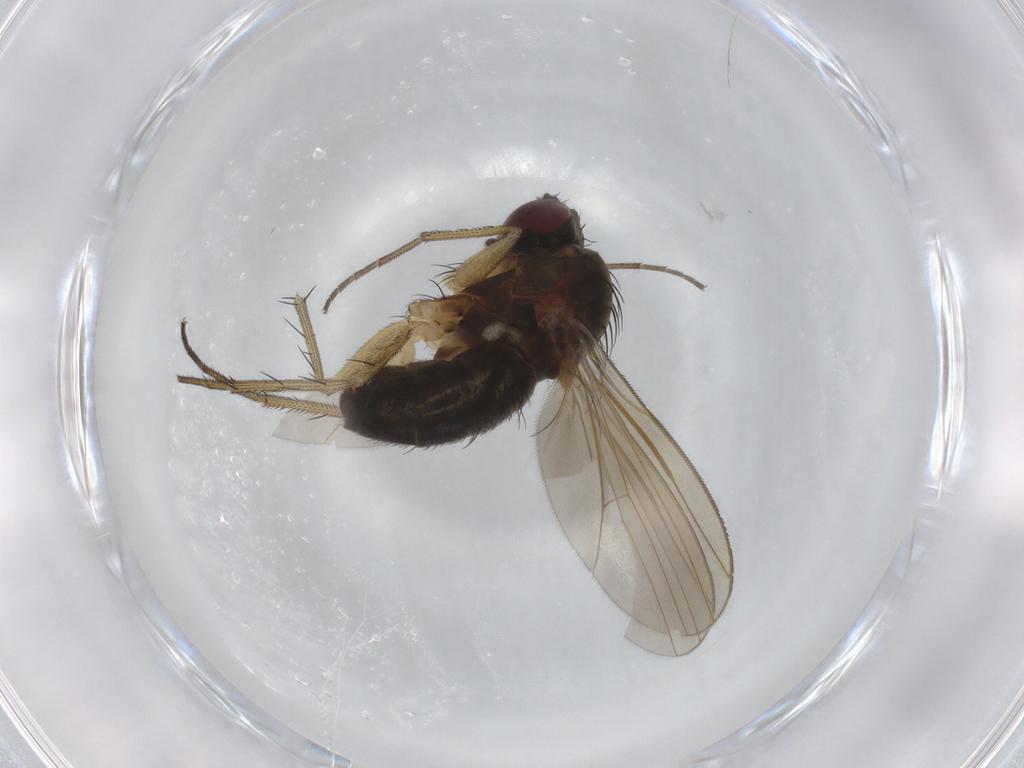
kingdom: Animalia
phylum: Arthropoda
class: Insecta
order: Diptera
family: Dolichopodidae
